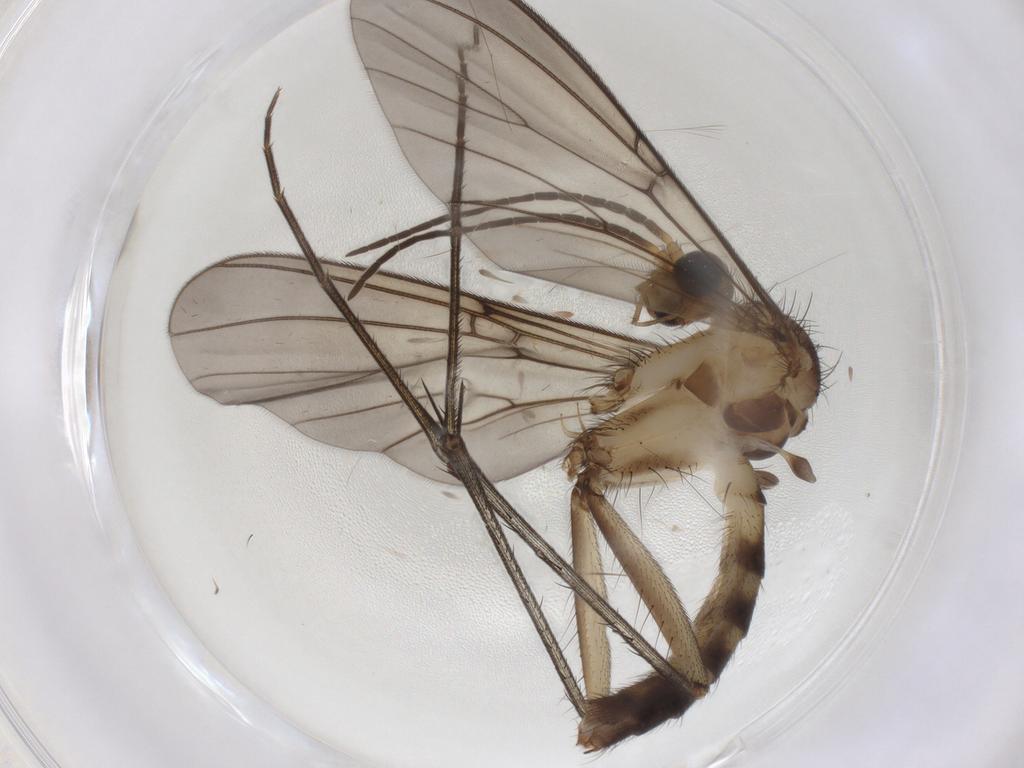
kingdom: Animalia
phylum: Arthropoda
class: Insecta
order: Diptera
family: Mycetophilidae
